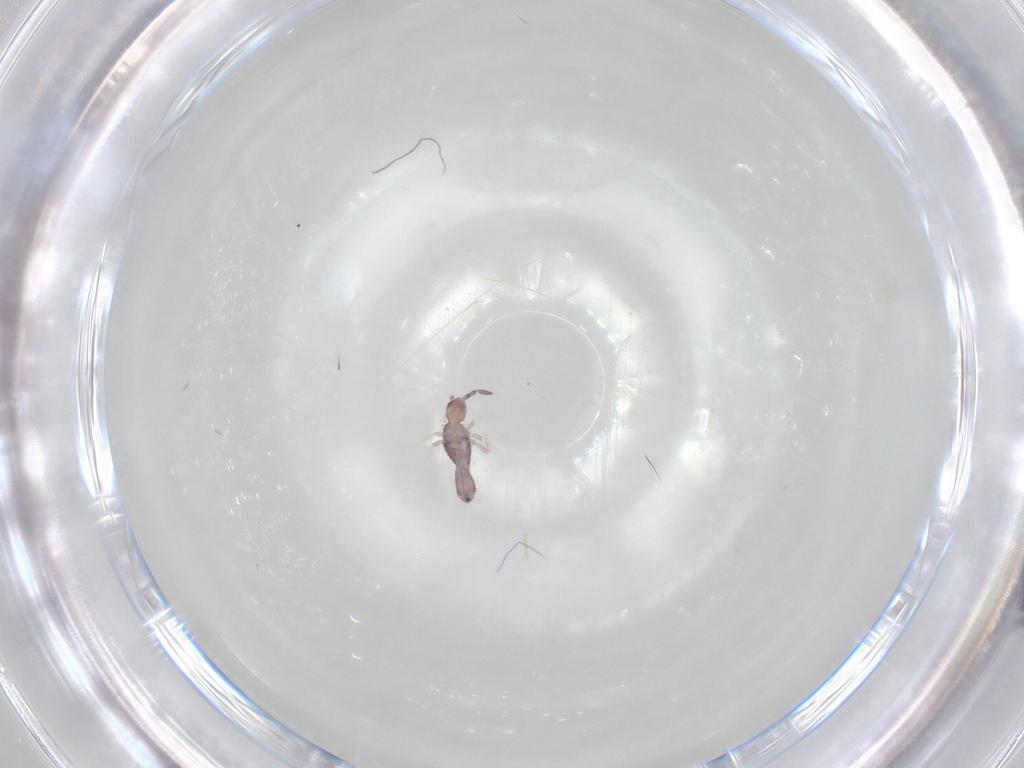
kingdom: Animalia
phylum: Arthropoda
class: Collembola
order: Entomobryomorpha
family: Entomobryidae
